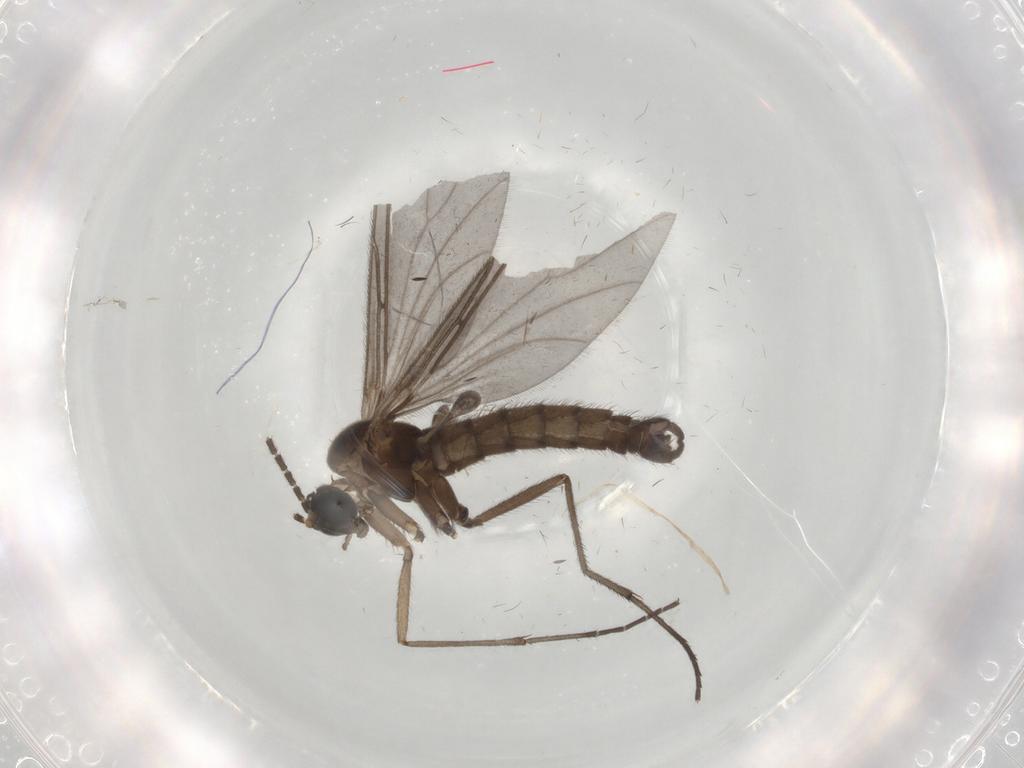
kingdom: Animalia
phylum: Arthropoda
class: Insecta
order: Diptera
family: Sciaridae
